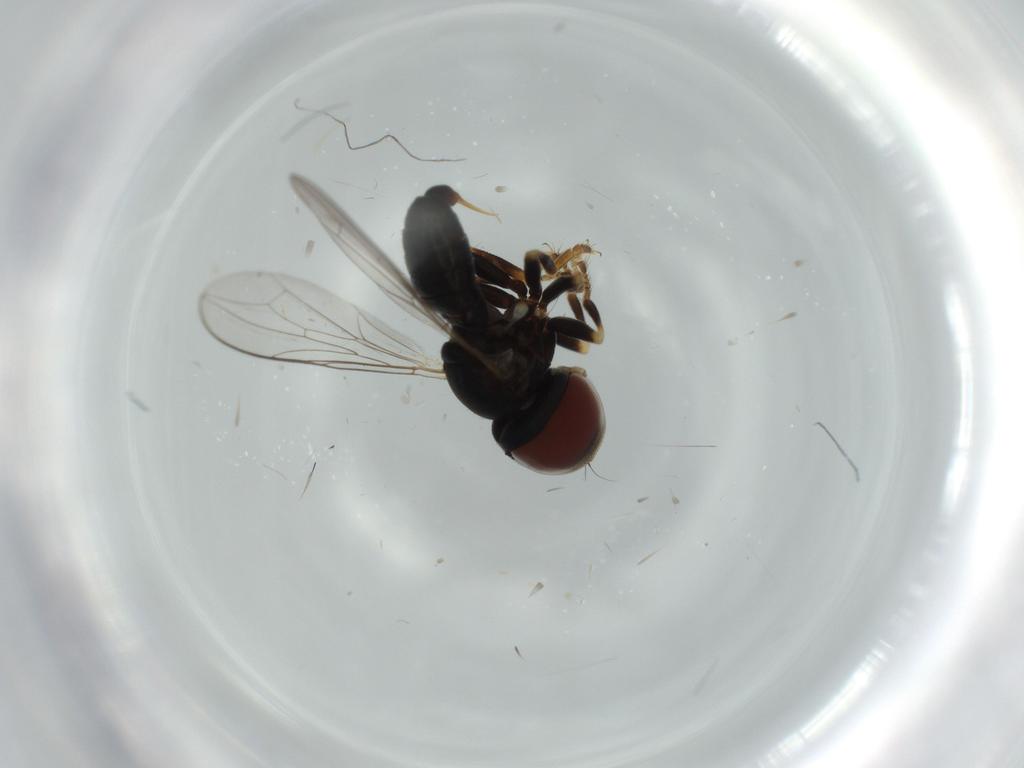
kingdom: Animalia
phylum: Arthropoda
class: Insecta
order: Diptera
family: Pipunculidae
